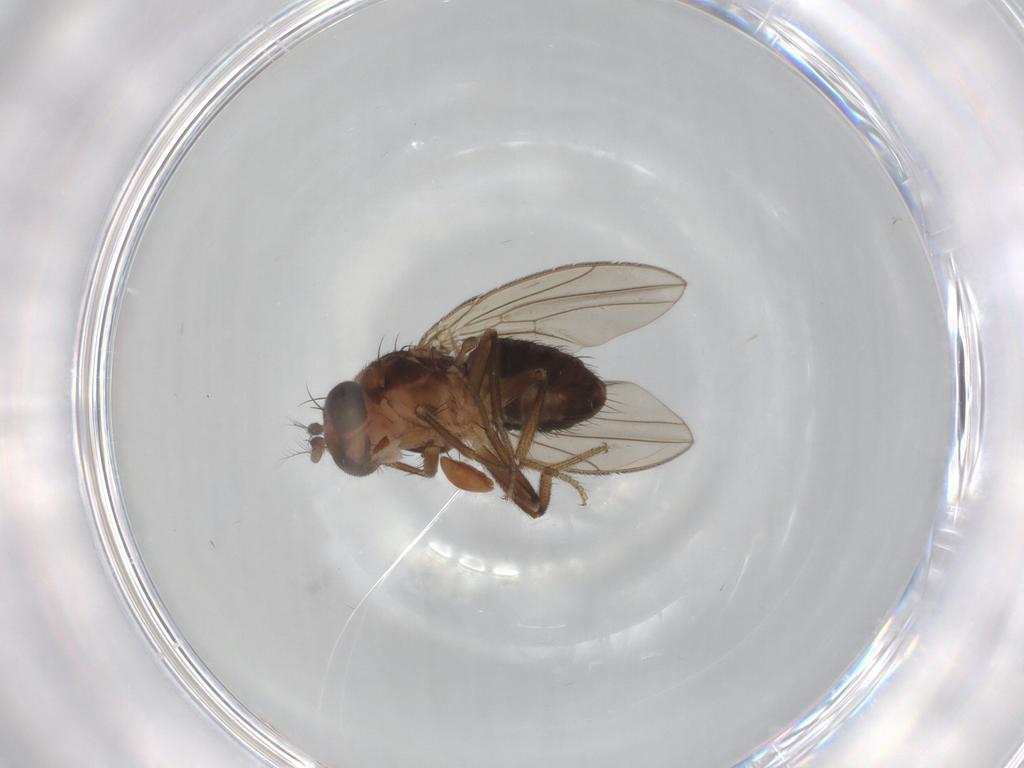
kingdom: Animalia
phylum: Arthropoda
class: Insecta
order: Diptera
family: Drosophilidae
